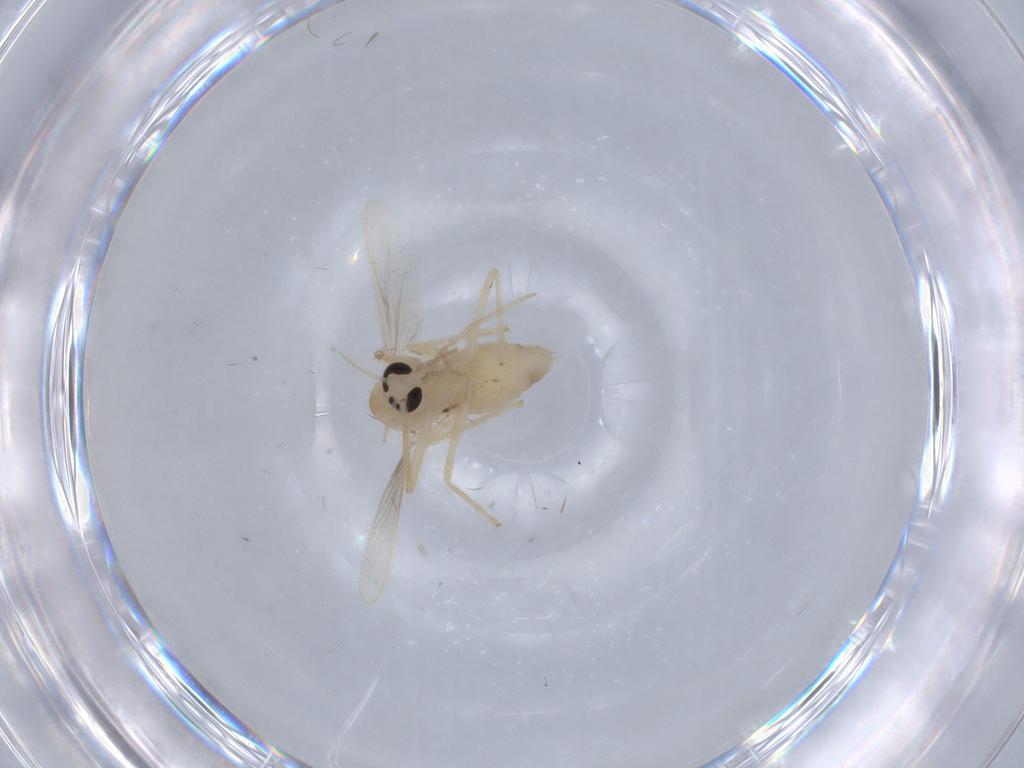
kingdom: Animalia
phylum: Arthropoda
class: Insecta
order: Diptera
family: Chironomidae
